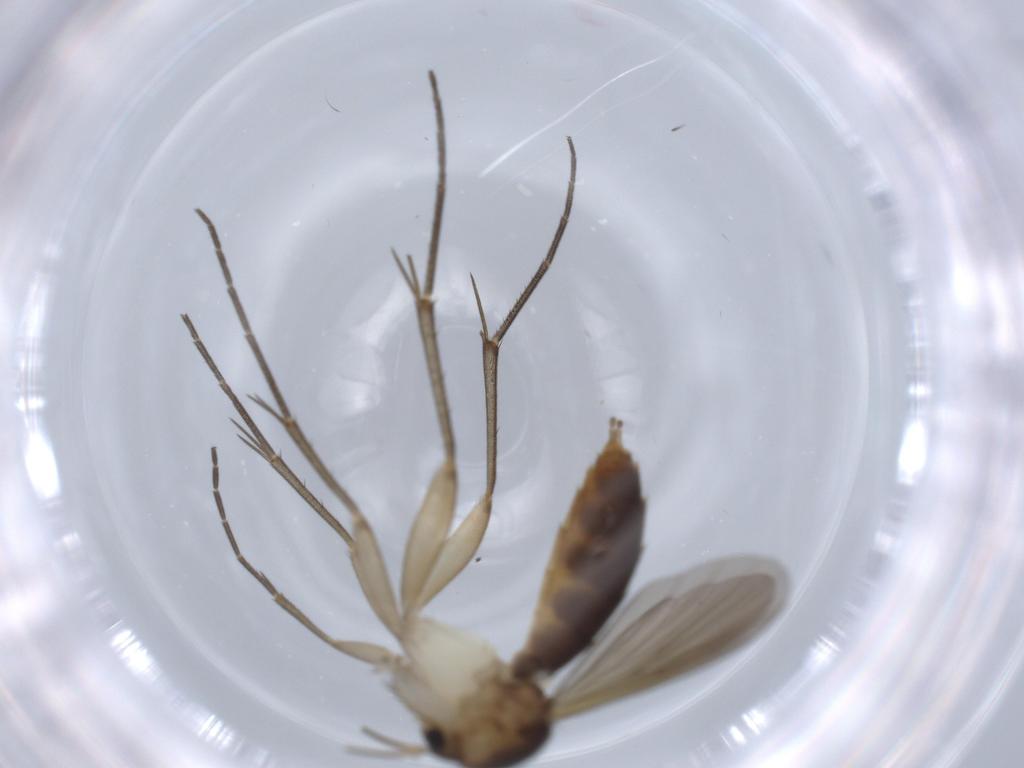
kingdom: Animalia
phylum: Arthropoda
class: Insecta
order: Diptera
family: Mycetophilidae
